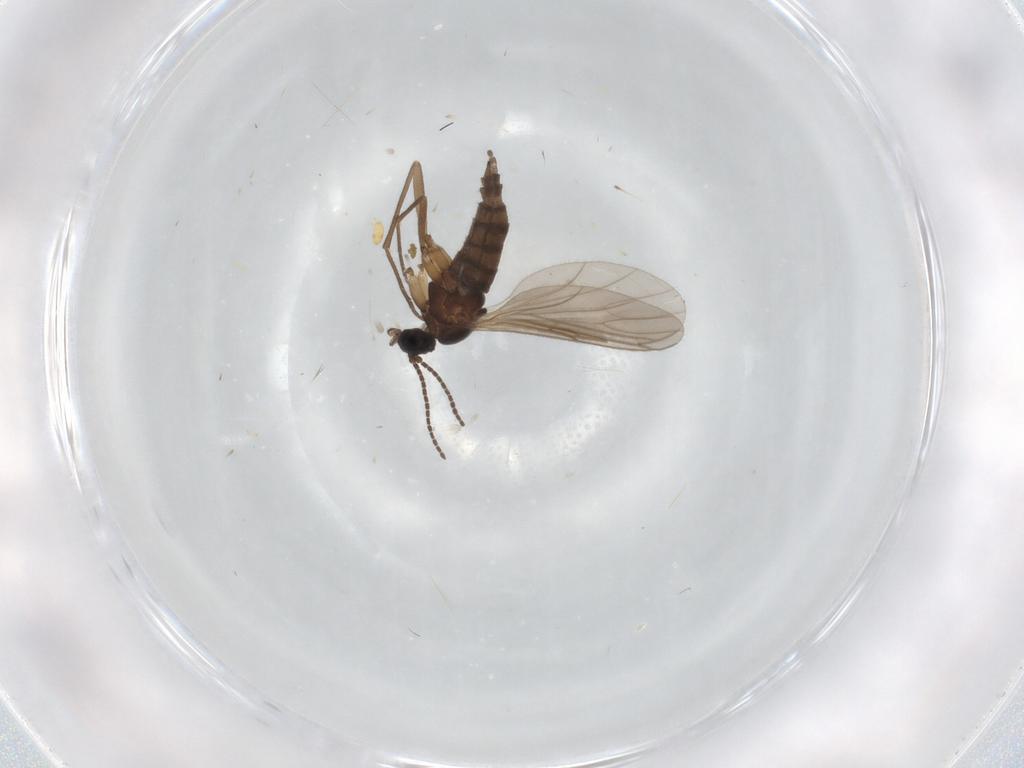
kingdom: Animalia
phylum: Arthropoda
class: Insecta
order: Diptera
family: Sciaridae
